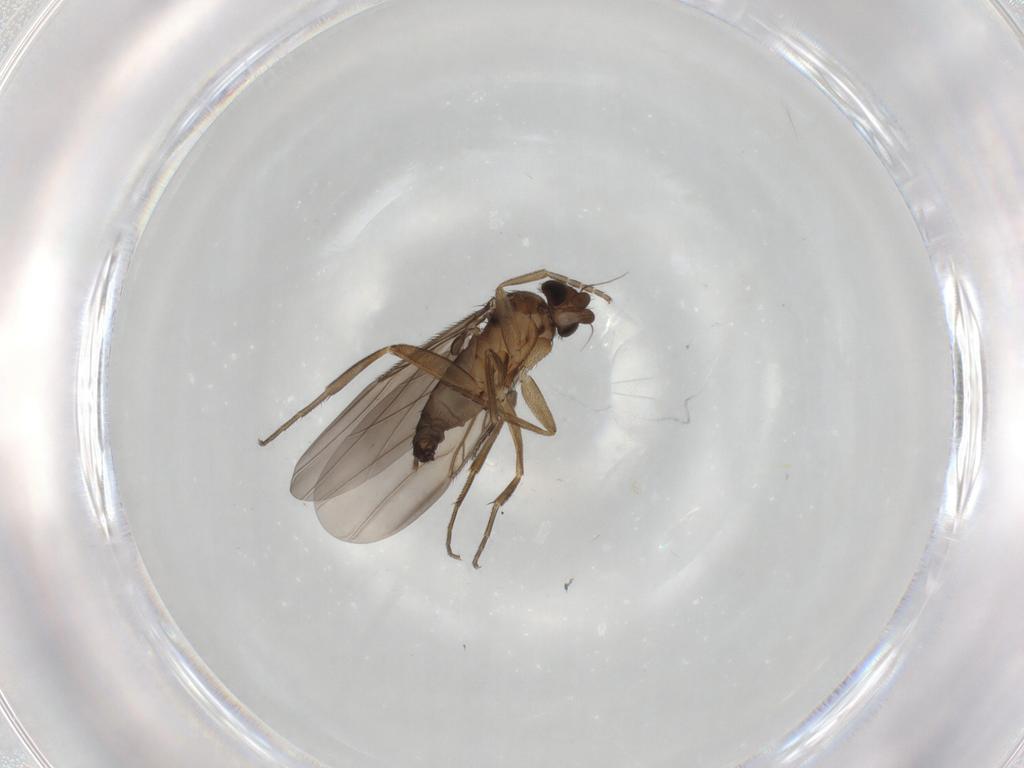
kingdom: Animalia
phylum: Arthropoda
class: Insecta
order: Diptera
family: Phoridae
